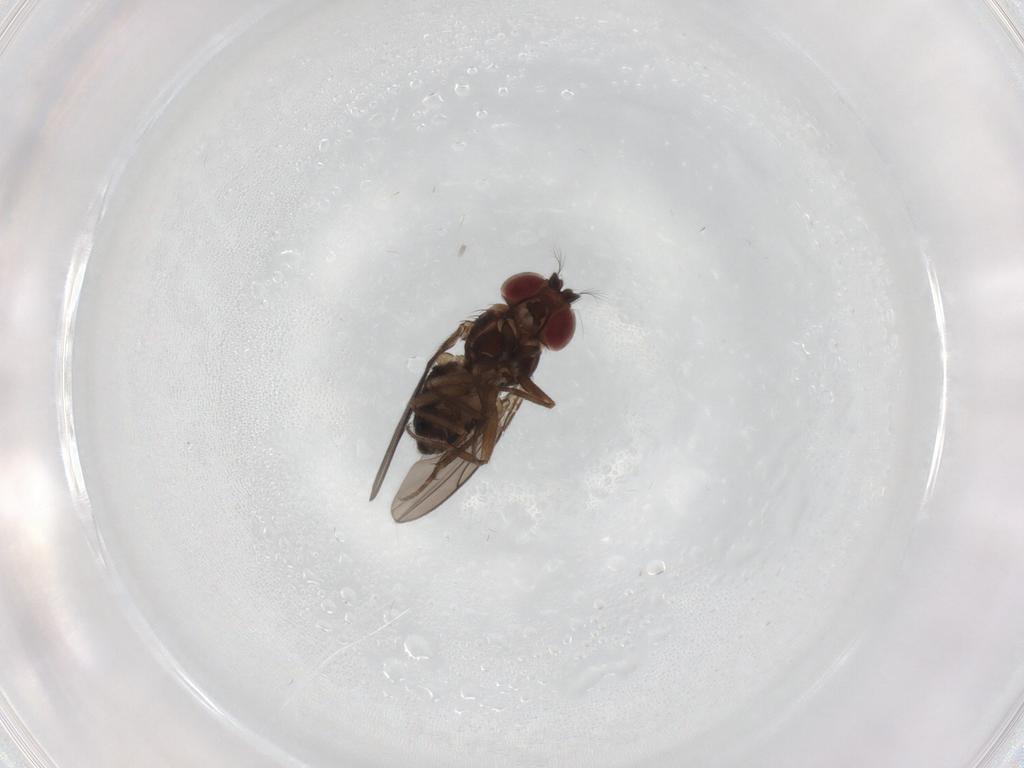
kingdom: Animalia
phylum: Arthropoda
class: Insecta
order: Diptera
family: Drosophilidae
